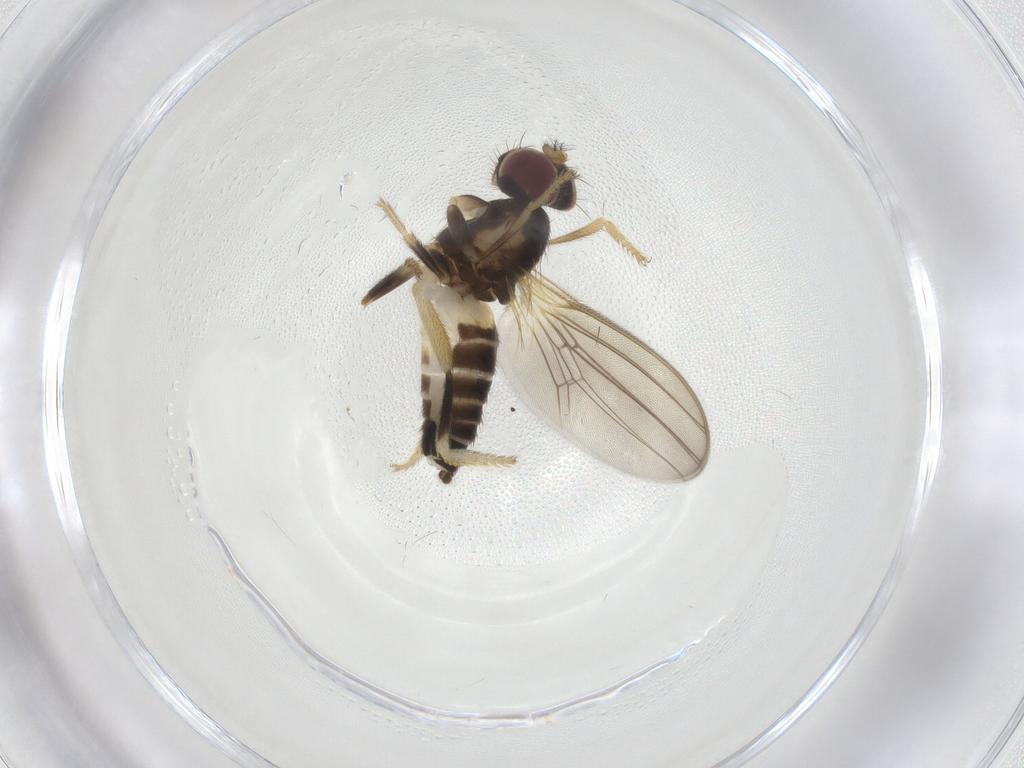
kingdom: Animalia
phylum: Arthropoda
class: Insecta
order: Diptera
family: Periscelididae
